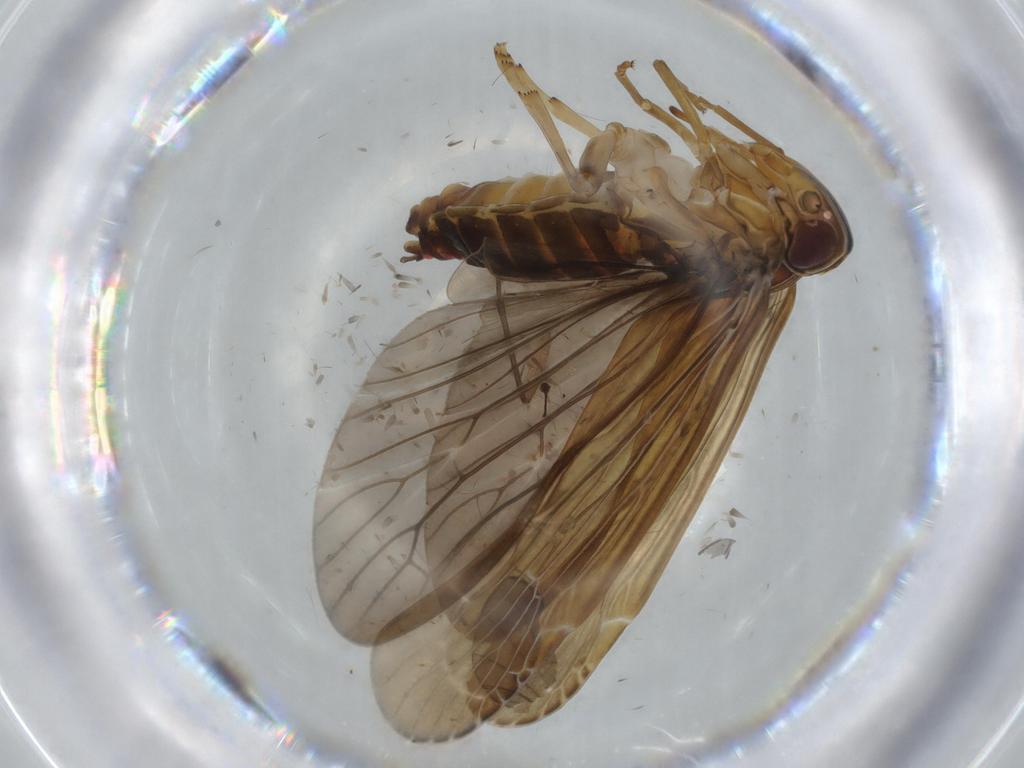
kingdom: Animalia
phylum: Arthropoda
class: Insecta
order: Hemiptera
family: Achilidae
